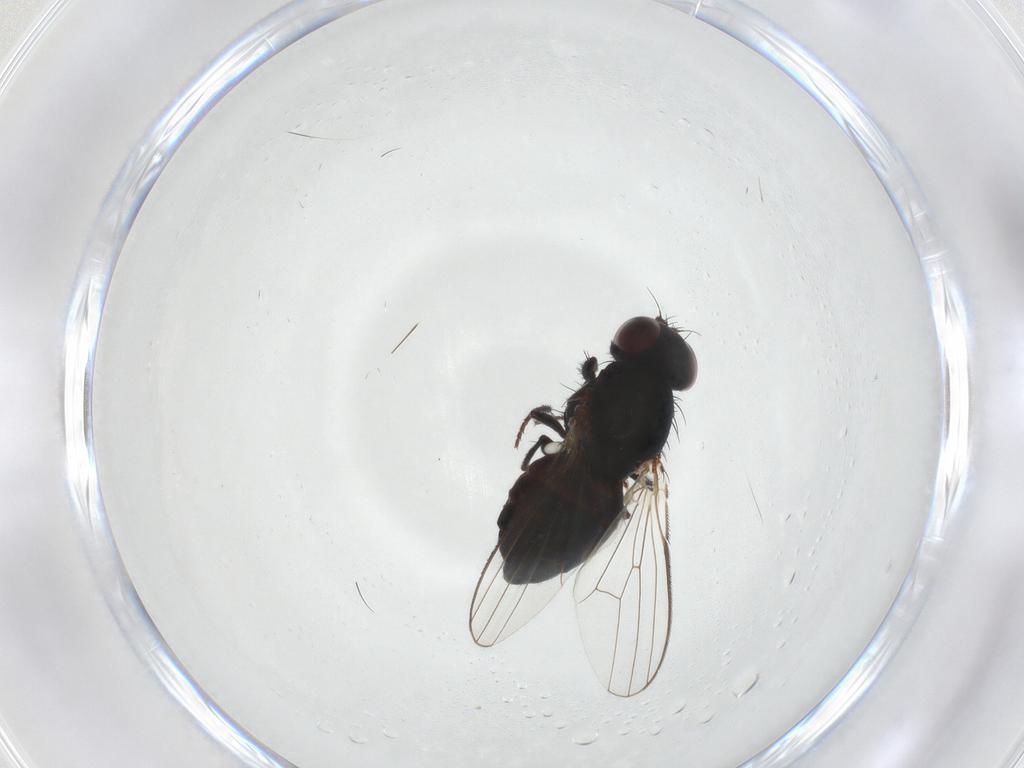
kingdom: Animalia
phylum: Arthropoda
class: Insecta
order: Diptera
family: Carnidae
